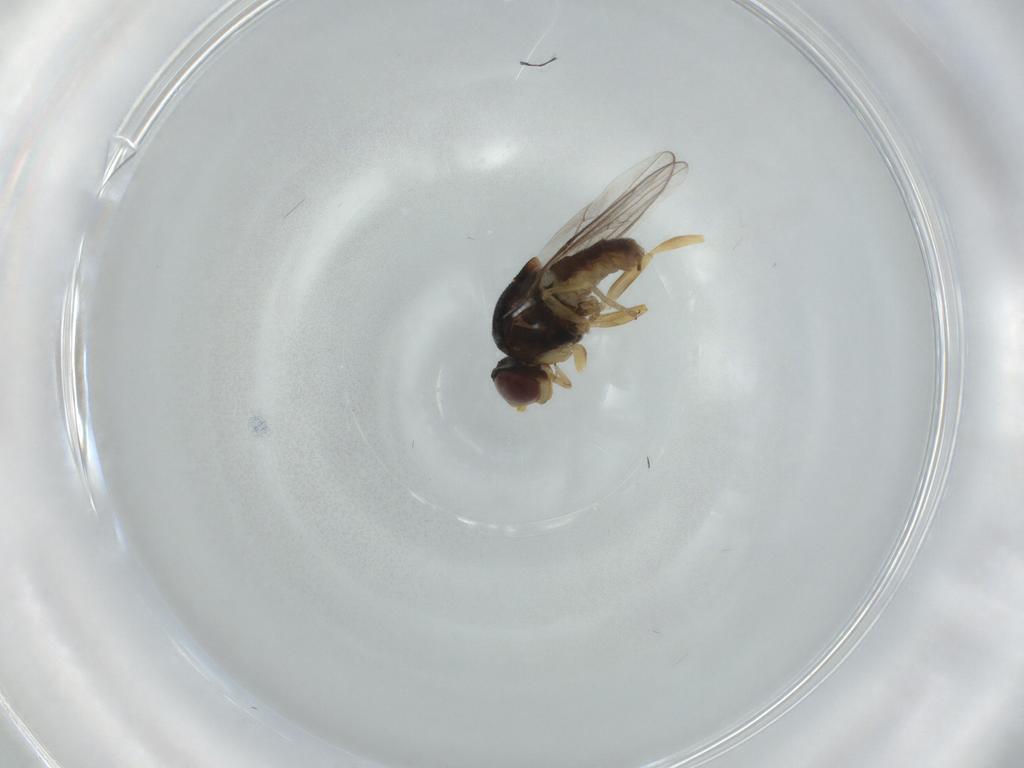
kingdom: Animalia
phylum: Arthropoda
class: Insecta
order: Diptera
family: Chloropidae
